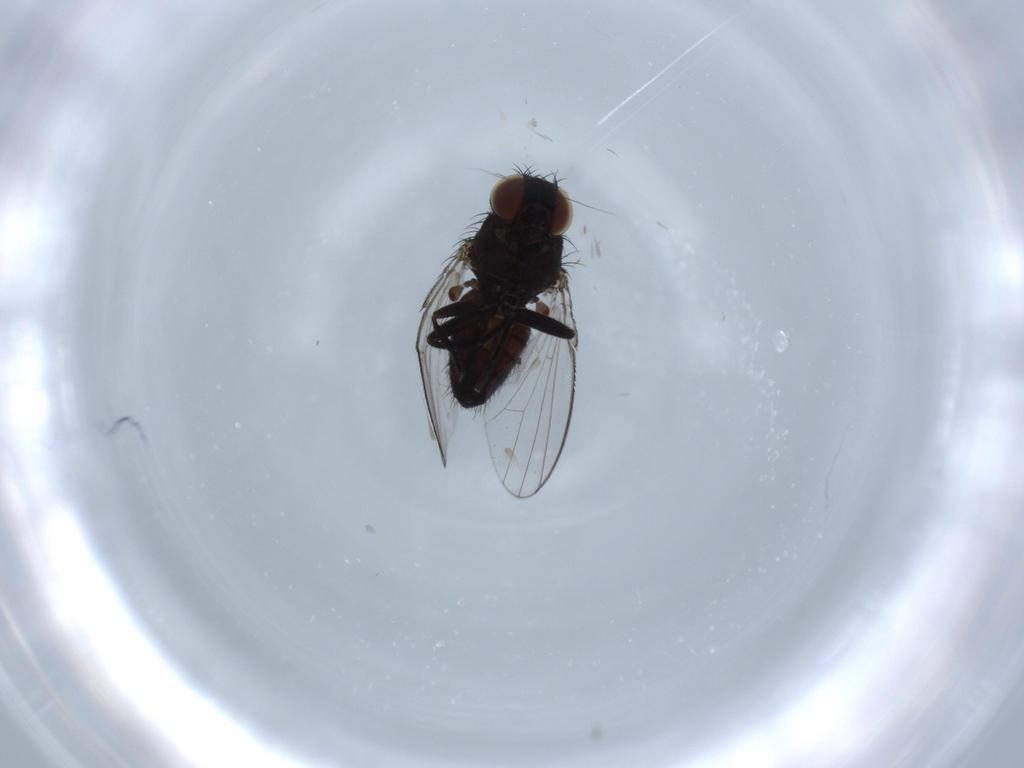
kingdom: Animalia
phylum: Arthropoda
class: Insecta
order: Diptera
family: Milichiidae
